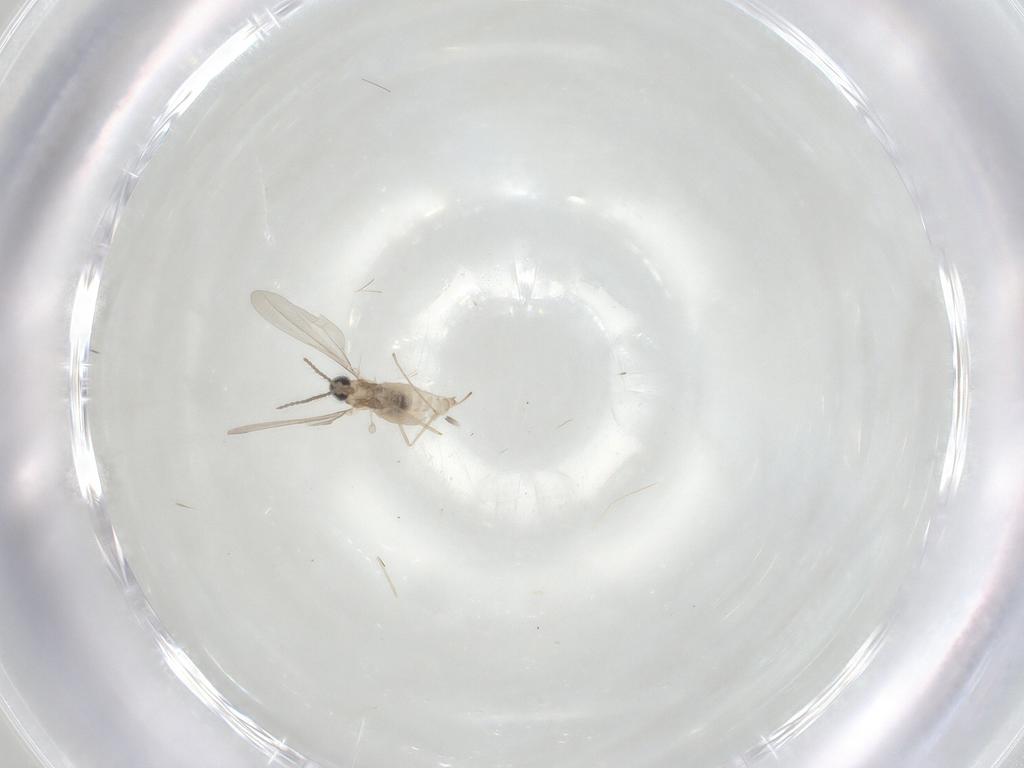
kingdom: Animalia
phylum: Arthropoda
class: Insecta
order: Diptera
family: Cecidomyiidae
